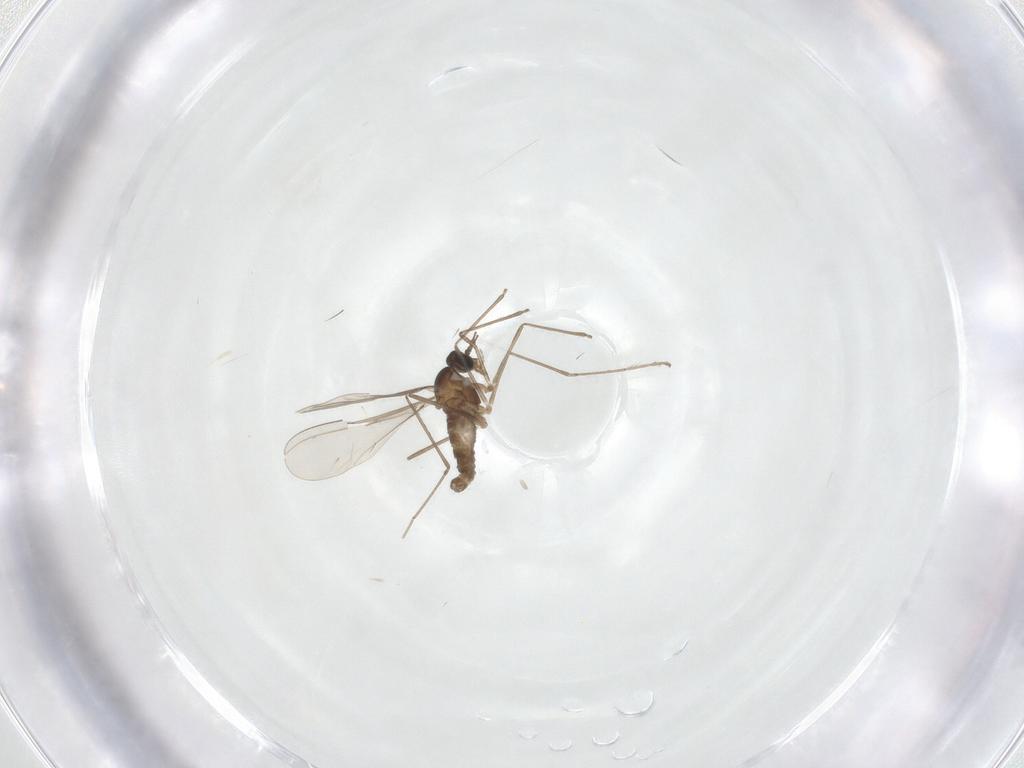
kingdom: Animalia
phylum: Arthropoda
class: Insecta
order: Diptera
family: Cecidomyiidae
